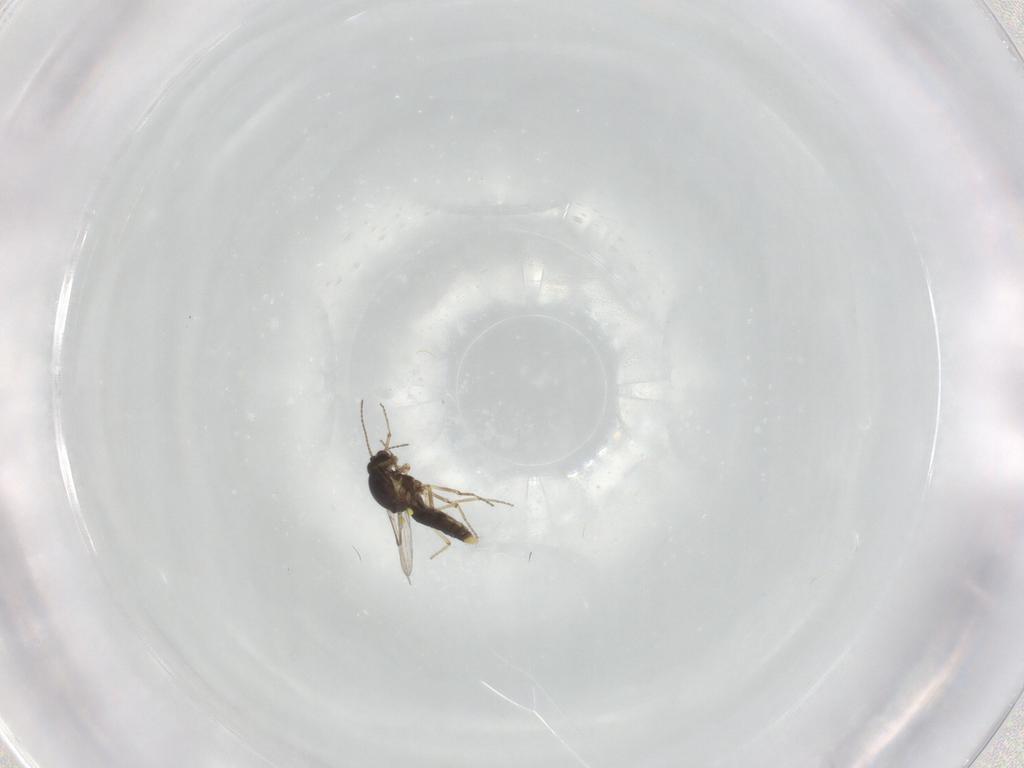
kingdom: Animalia
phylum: Arthropoda
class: Insecta
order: Diptera
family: Ceratopogonidae
